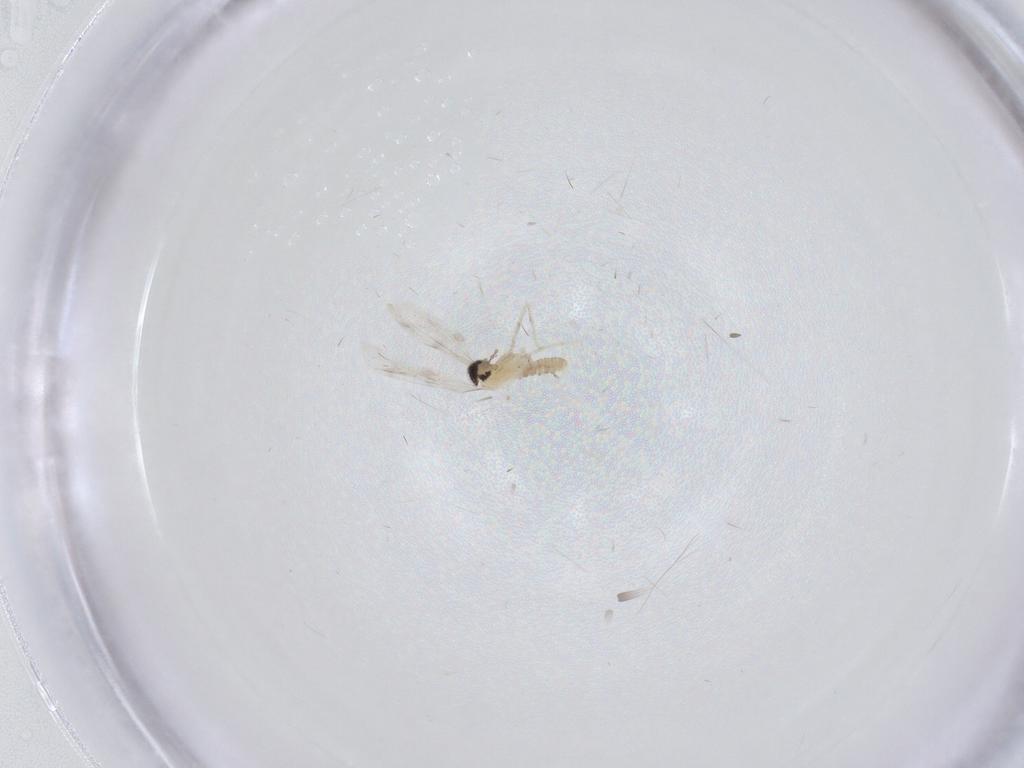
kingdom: Animalia
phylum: Arthropoda
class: Insecta
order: Diptera
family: Cecidomyiidae
